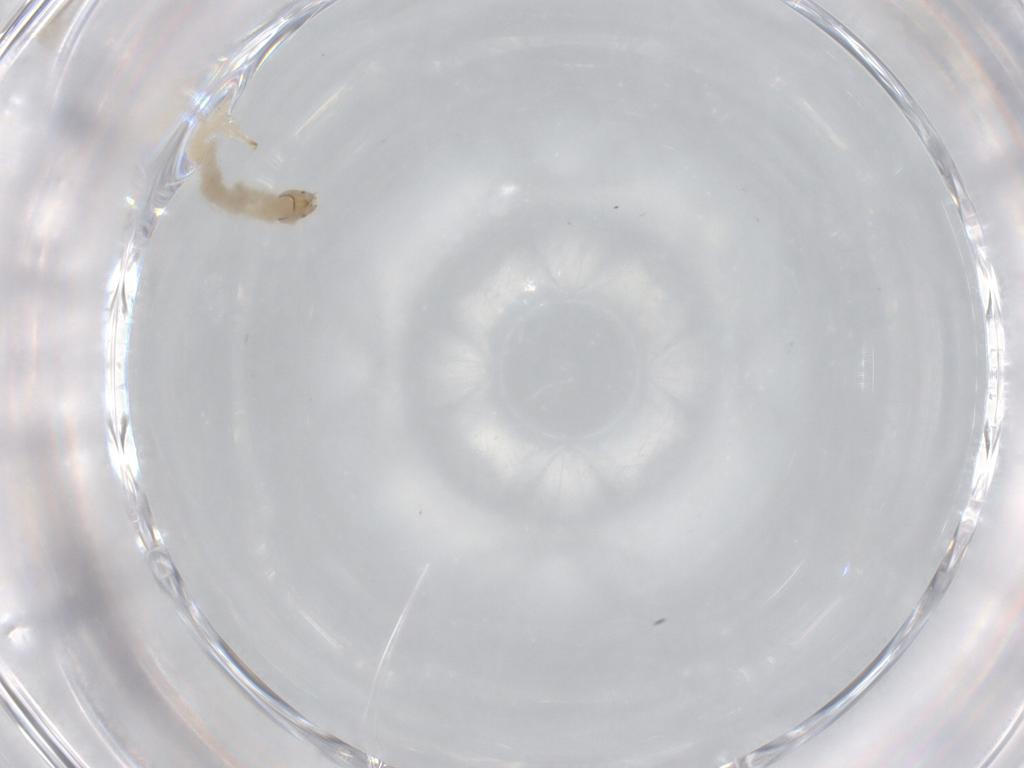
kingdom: Animalia
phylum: Arthropoda
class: Insecta
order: Diptera
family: Chironomidae
